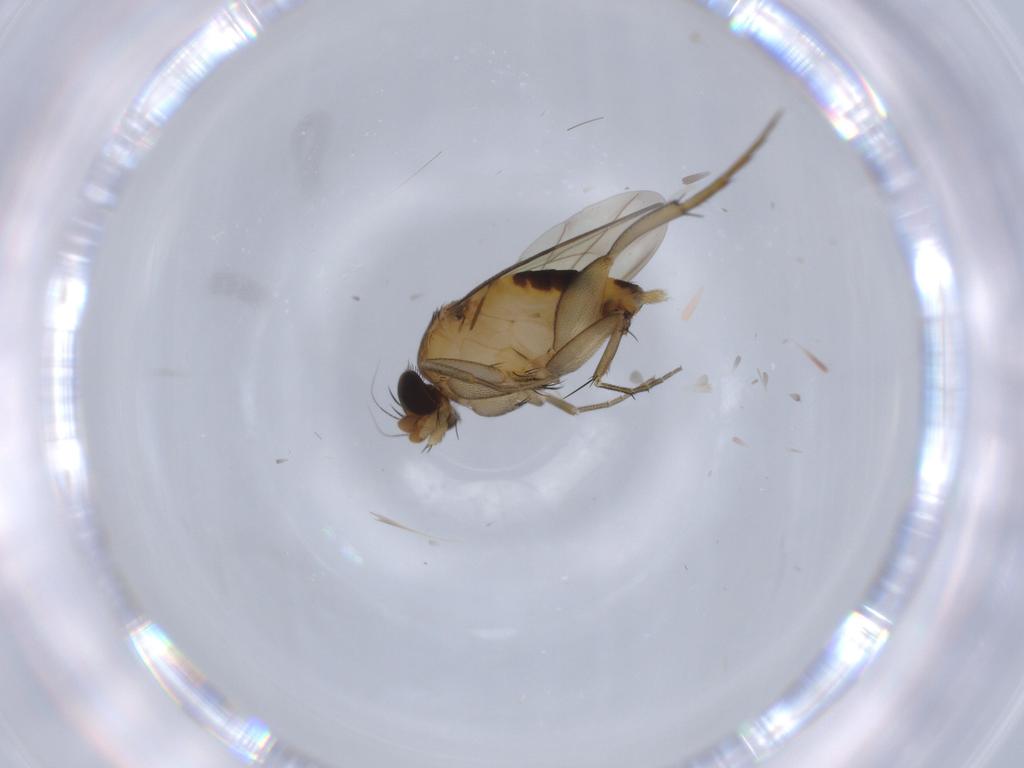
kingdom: Animalia
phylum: Arthropoda
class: Insecta
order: Diptera
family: Phoridae
